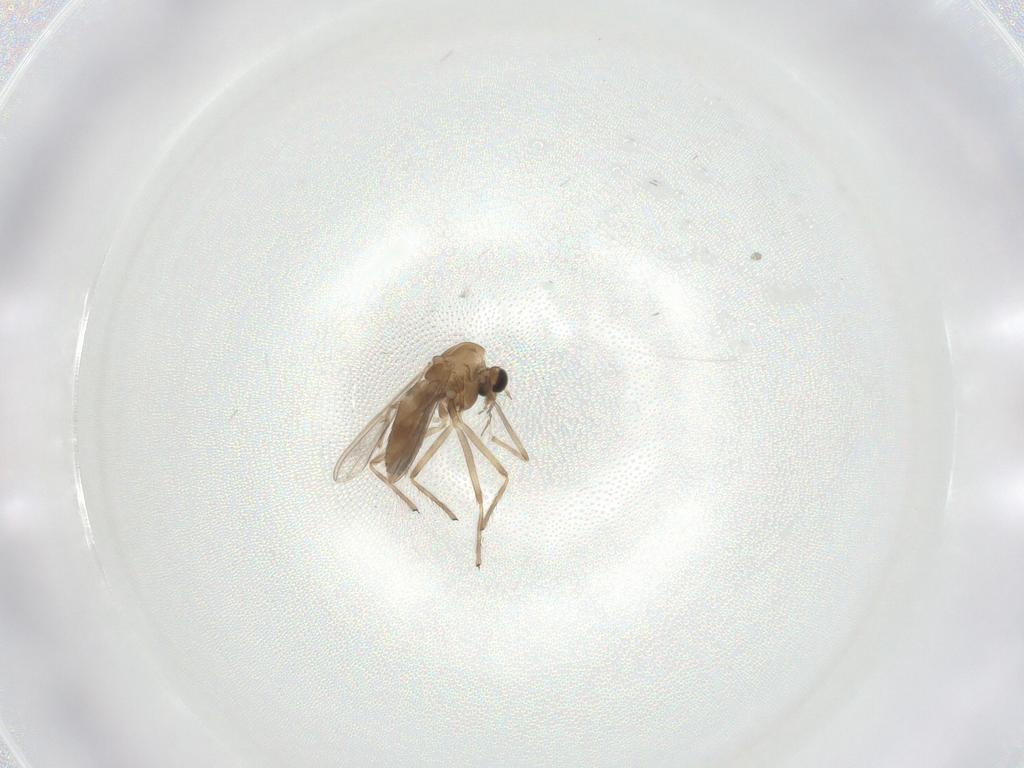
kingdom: Animalia
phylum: Arthropoda
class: Insecta
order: Diptera
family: Chironomidae
